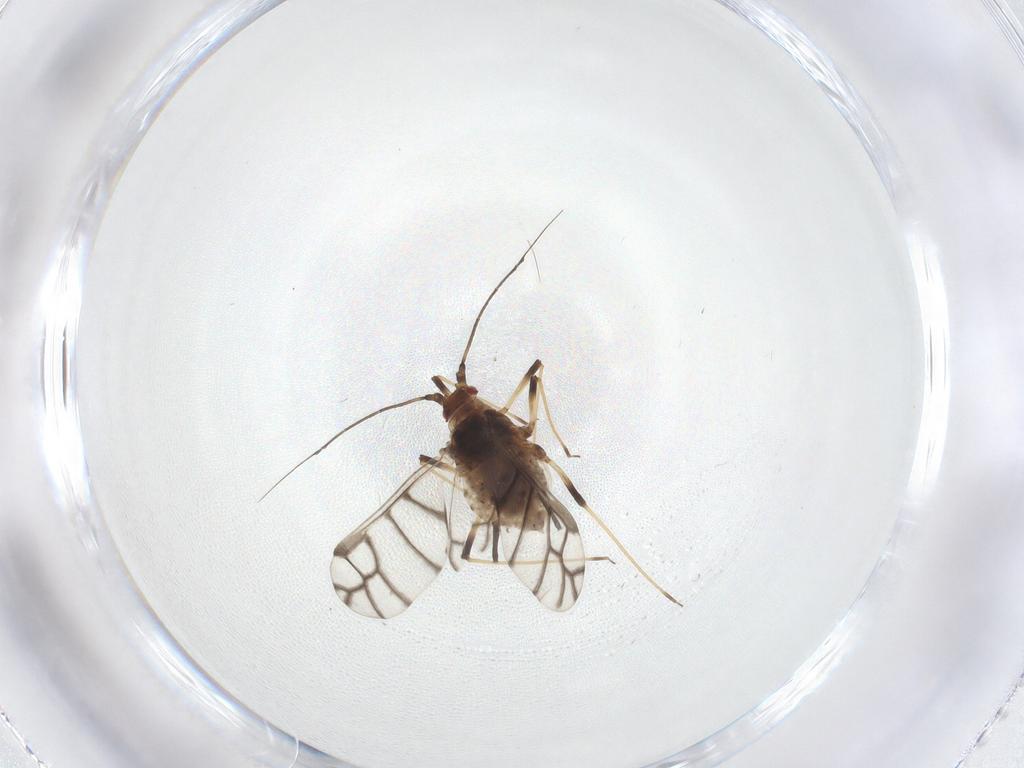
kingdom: Animalia
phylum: Arthropoda
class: Insecta
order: Hemiptera
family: Aphididae
